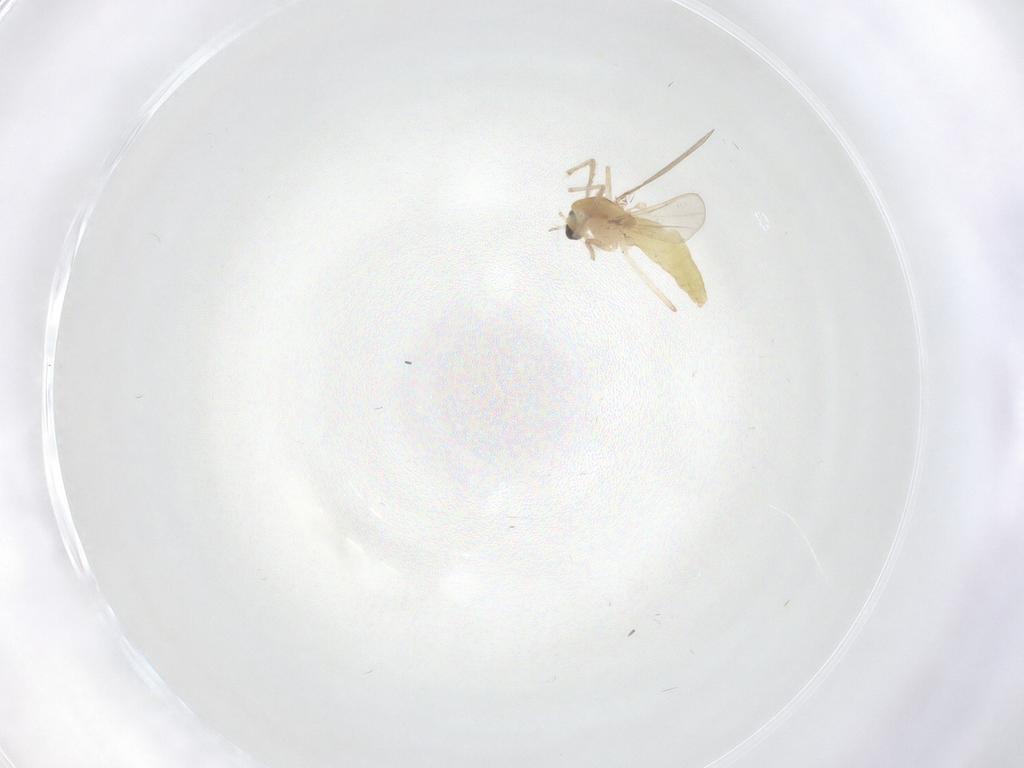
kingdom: Animalia
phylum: Arthropoda
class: Insecta
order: Diptera
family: Chironomidae
